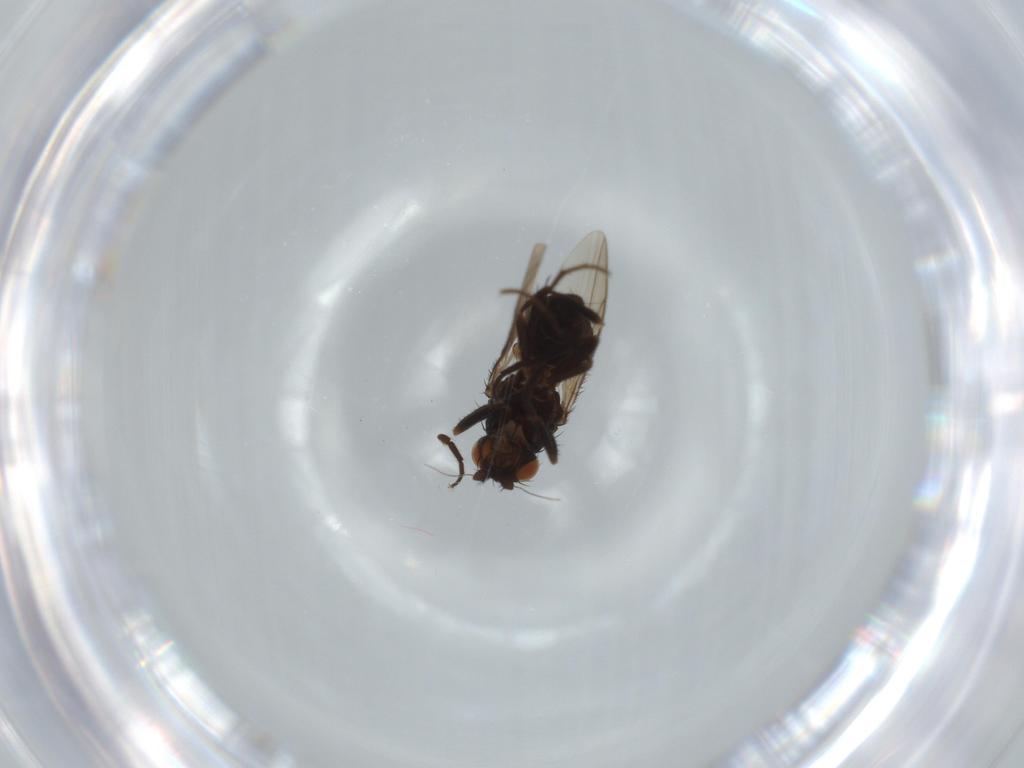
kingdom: Animalia
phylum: Arthropoda
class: Insecta
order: Diptera
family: Sphaeroceridae
